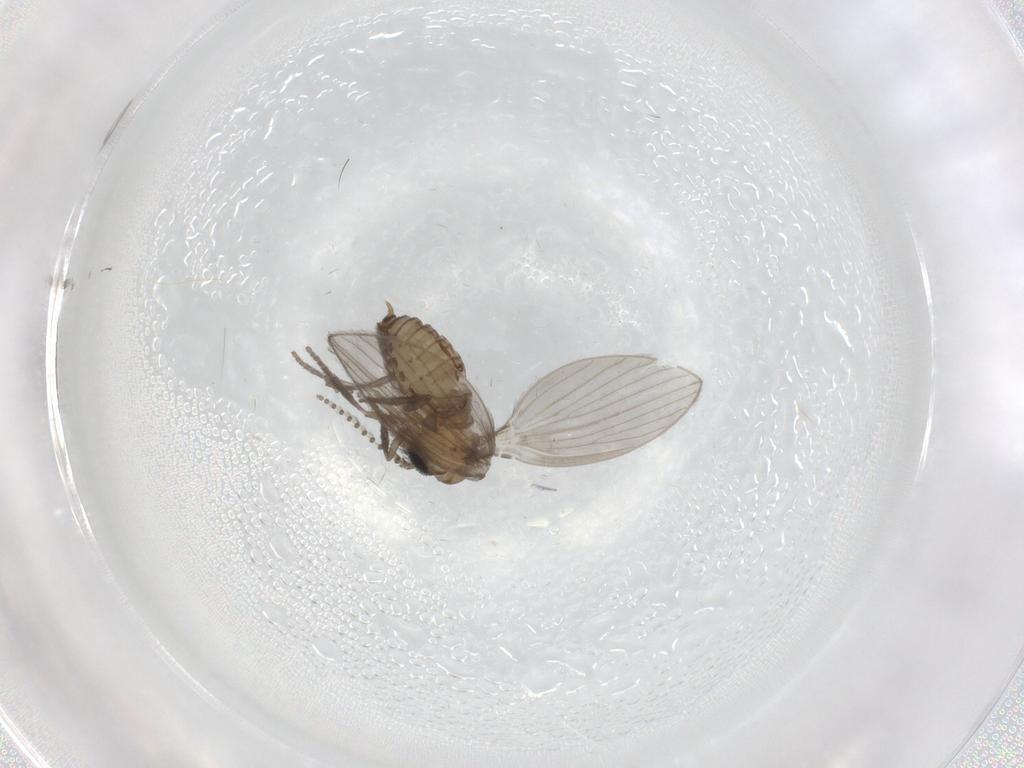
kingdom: Animalia
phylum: Arthropoda
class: Insecta
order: Diptera
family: Psychodidae
